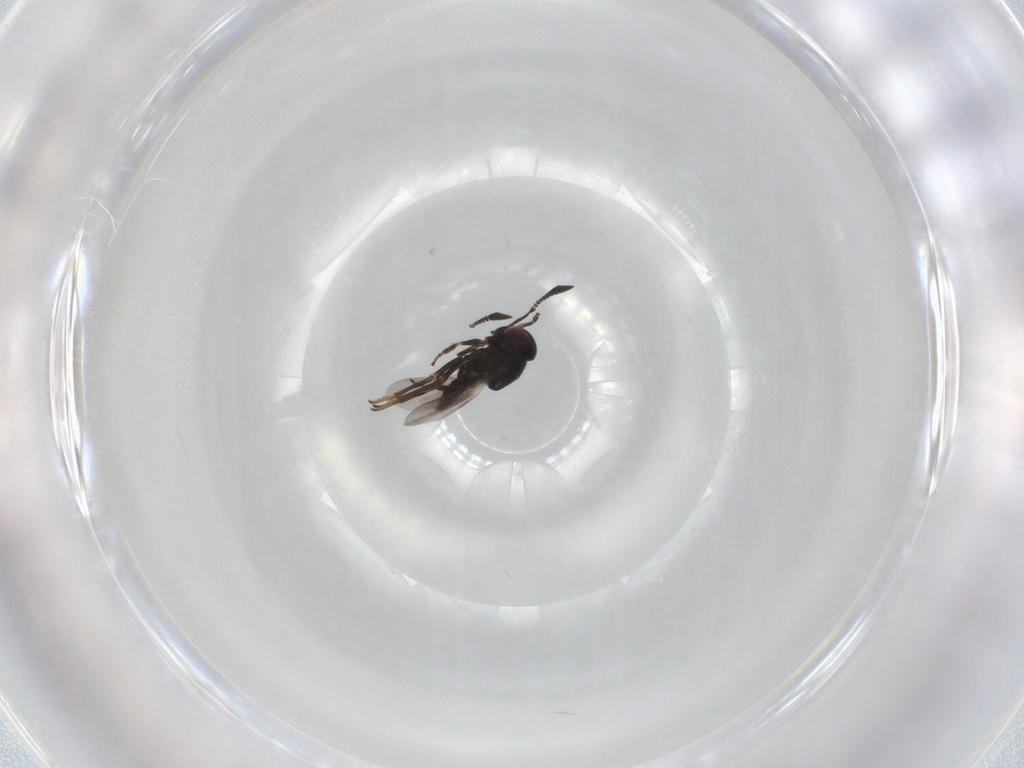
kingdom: Animalia
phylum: Arthropoda
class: Insecta
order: Hymenoptera
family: Encyrtidae
